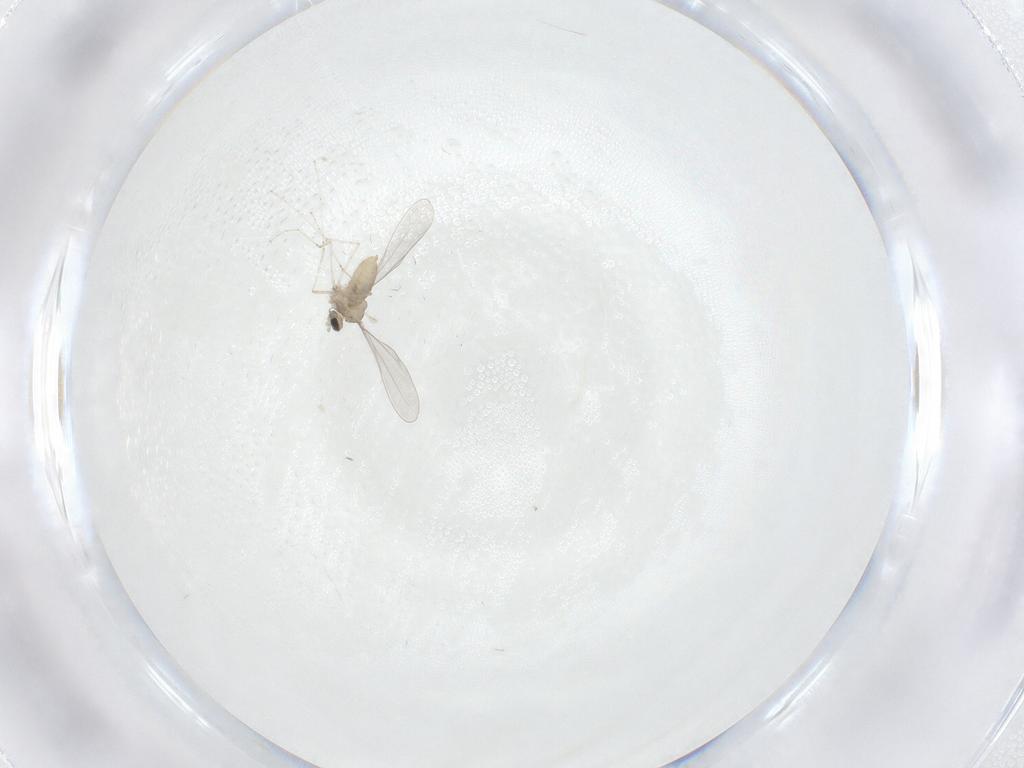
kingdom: Animalia
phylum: Arthropoda
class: Insecta
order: Diptera
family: Cecidomyiidae
